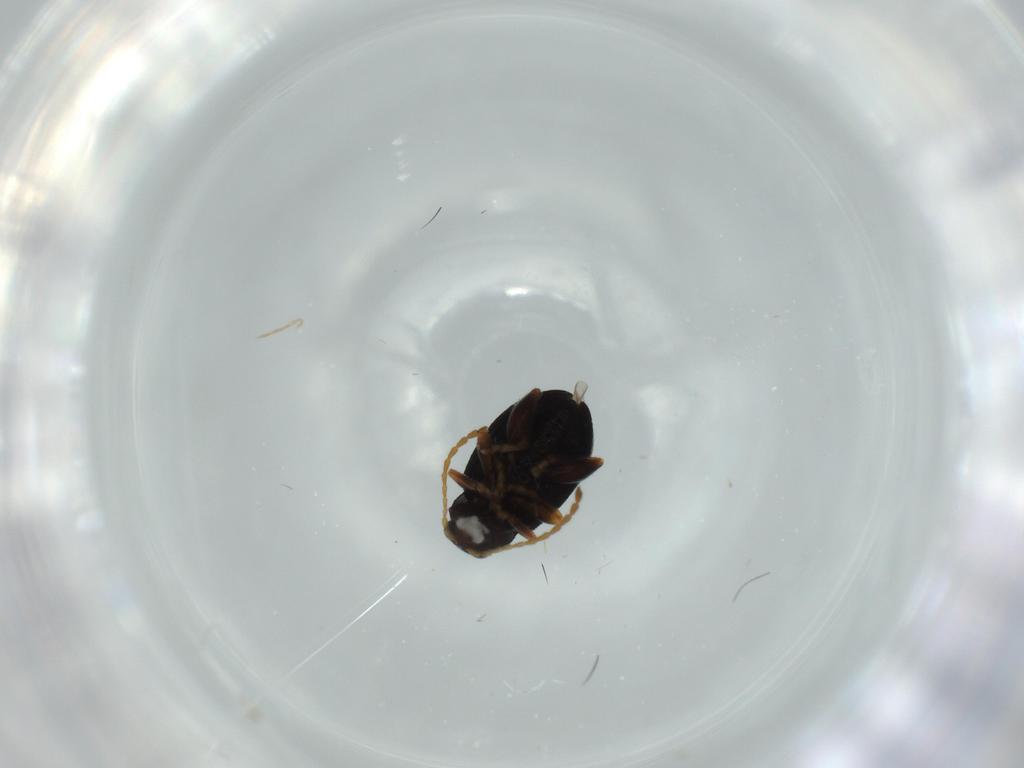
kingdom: Animalia
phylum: Arthropoda
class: Insecta
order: Coleoptera
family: Chrysomelidae
